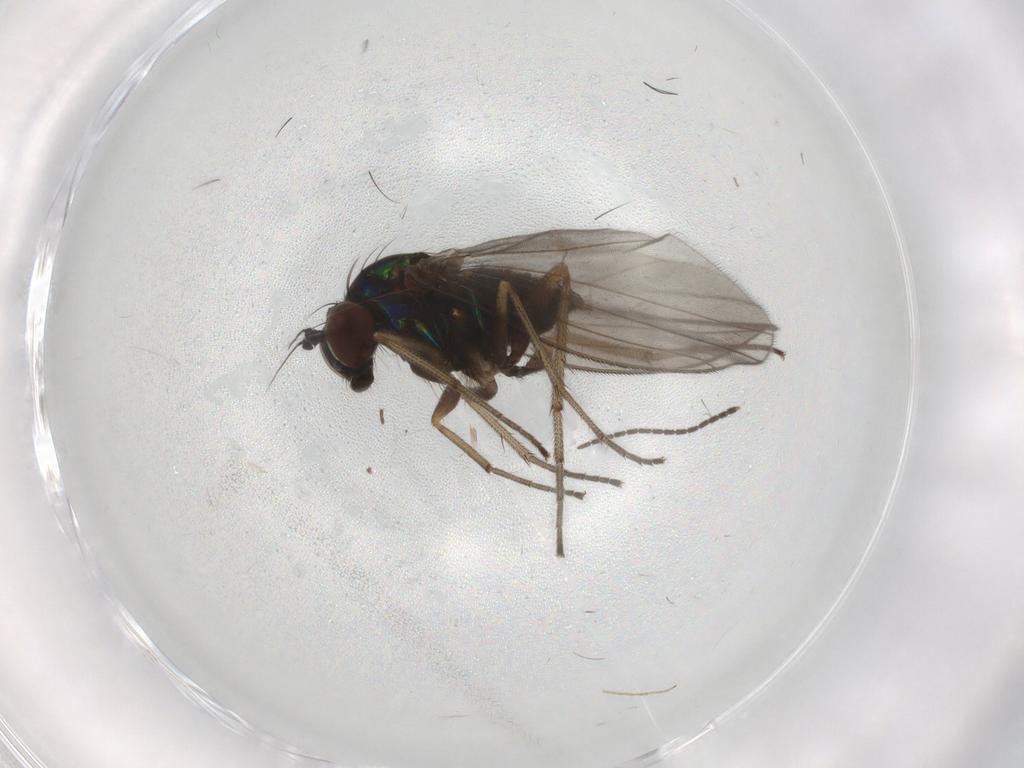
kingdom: Animalia
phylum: Arthropoda
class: Insecta
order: Diptera
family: Dolichopodidae
